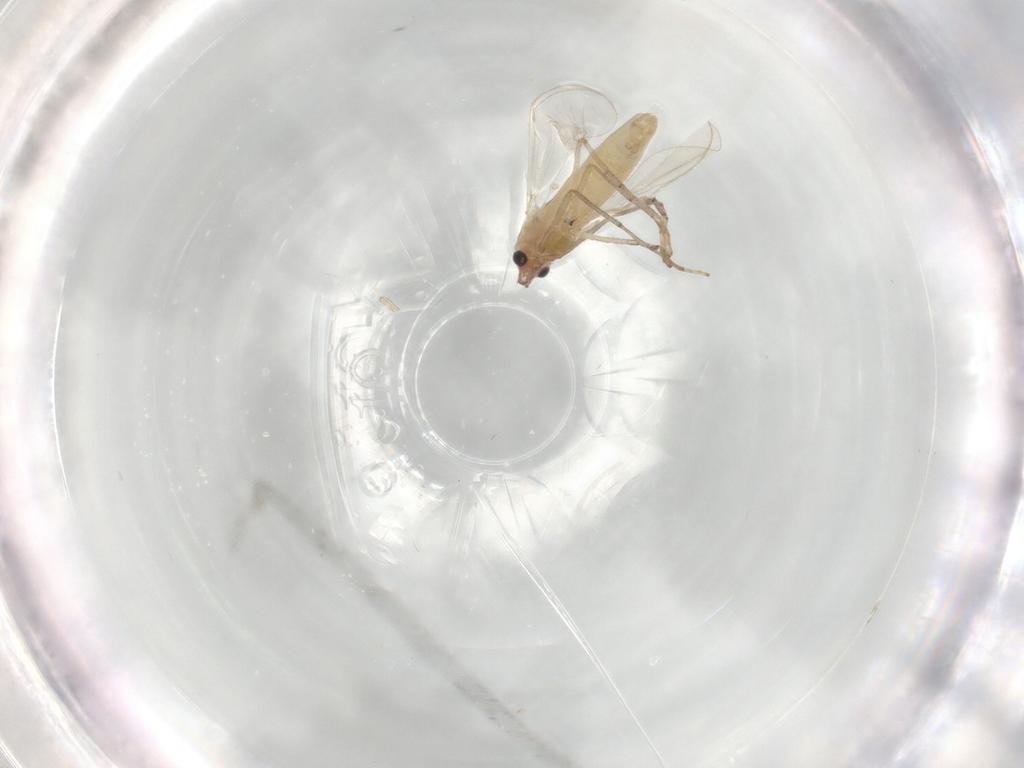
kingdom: Animalia
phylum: Arthropoda
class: Insecta
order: Diptera
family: Chironomidae
